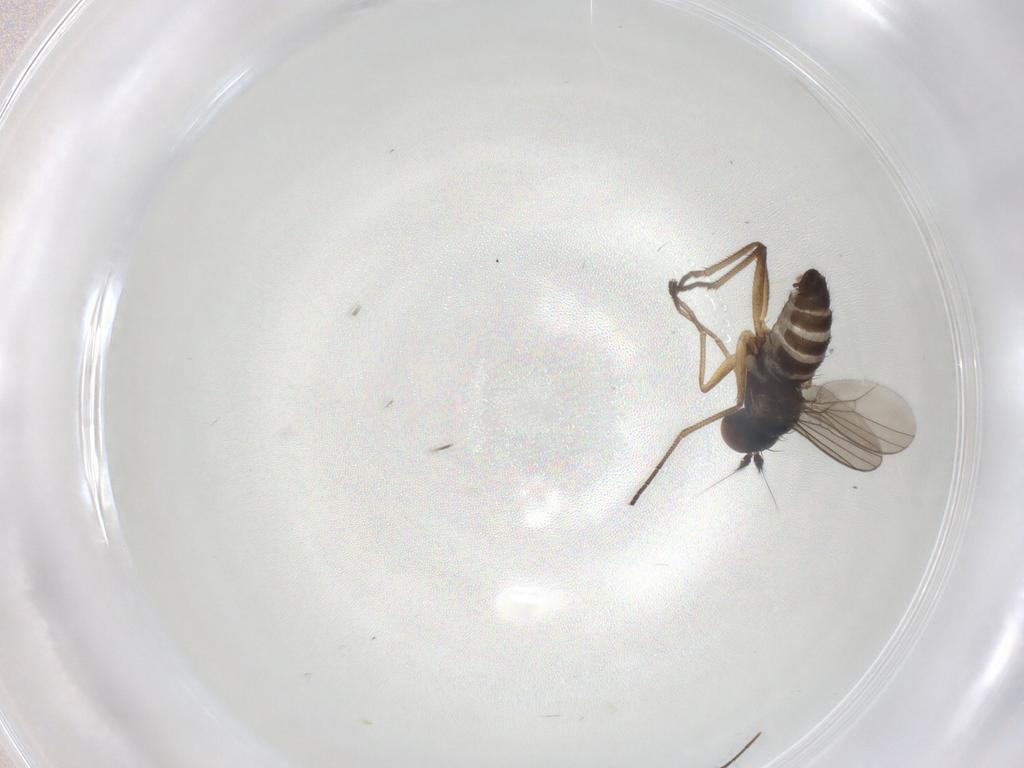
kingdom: Animalia
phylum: Arthropoda
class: Insecta
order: Diptera
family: Dolichopodidae
